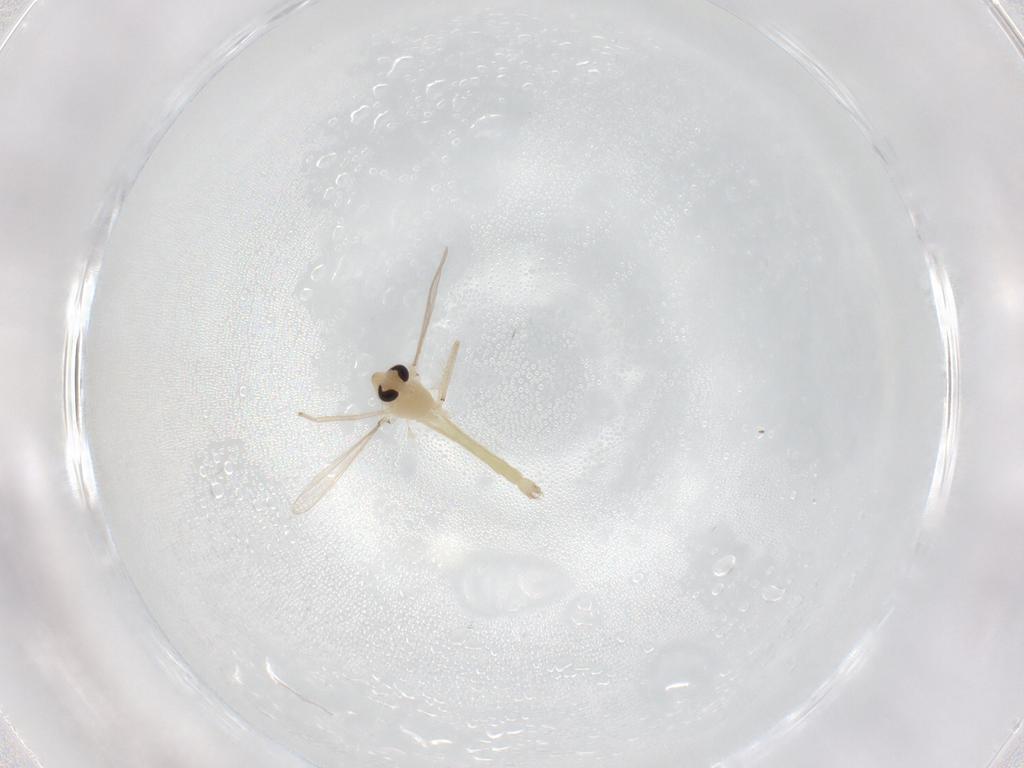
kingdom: Animalia
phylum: Arthropoda
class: Insecta
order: Diptera
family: Chironomidae
